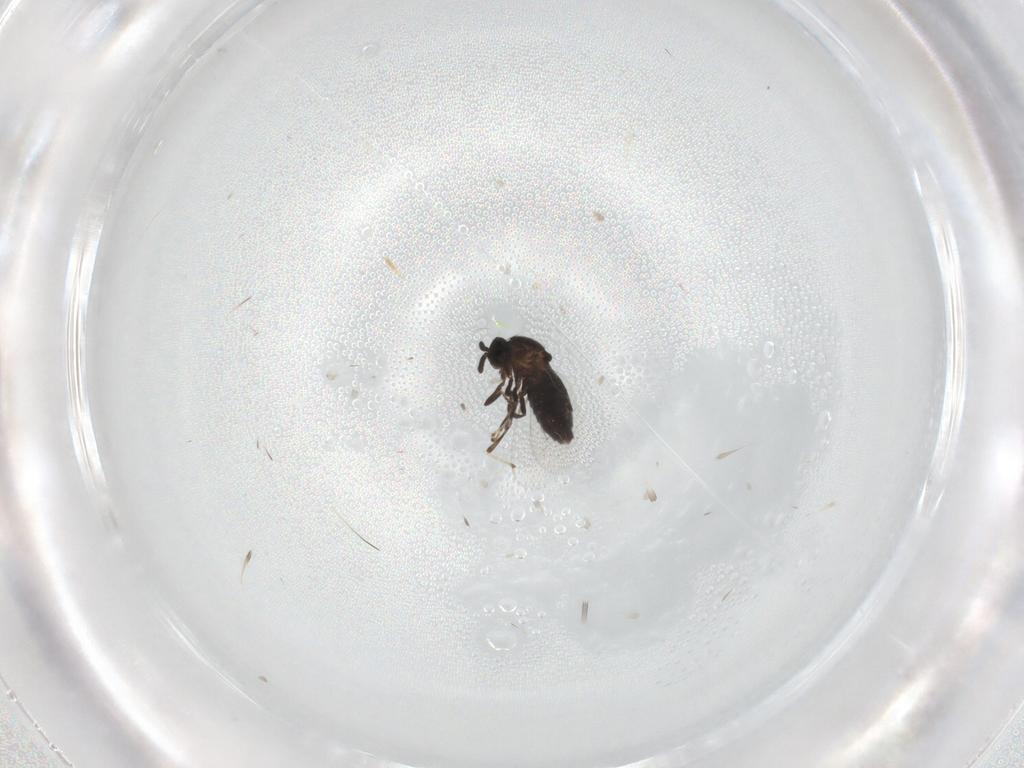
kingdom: Animalia
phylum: Arthropoda
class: Insecta
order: Diptera
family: Scatopsidae
